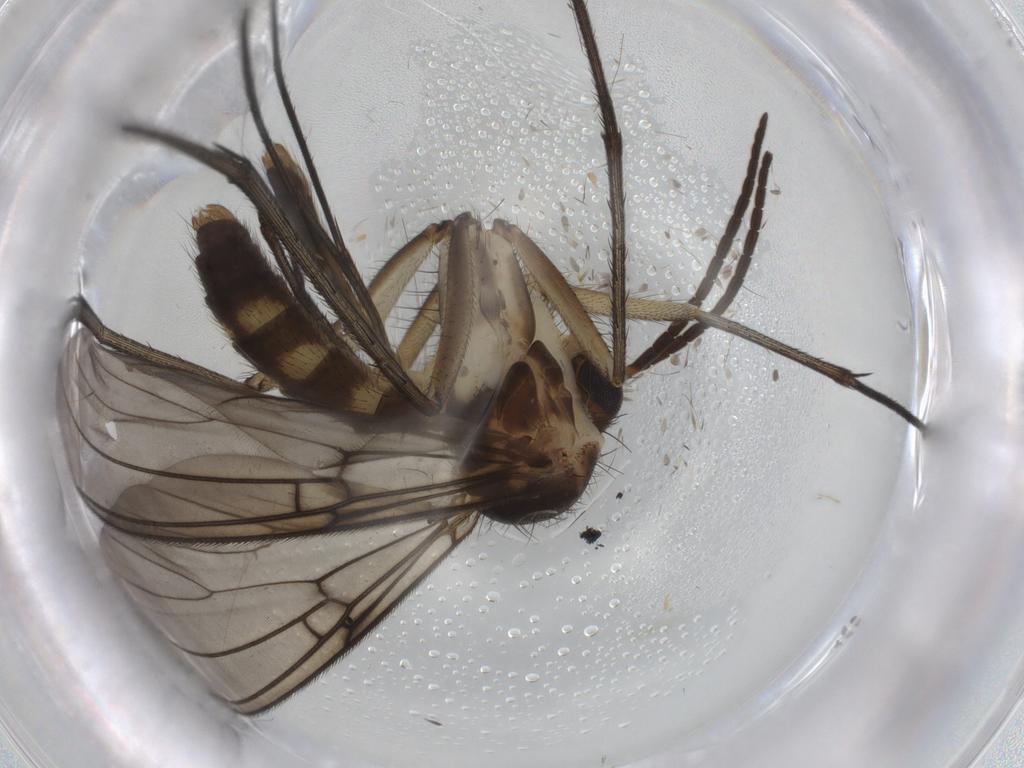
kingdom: Animalia
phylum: Arthropoda
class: Insecta
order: Diptera
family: Mycetophilidae
